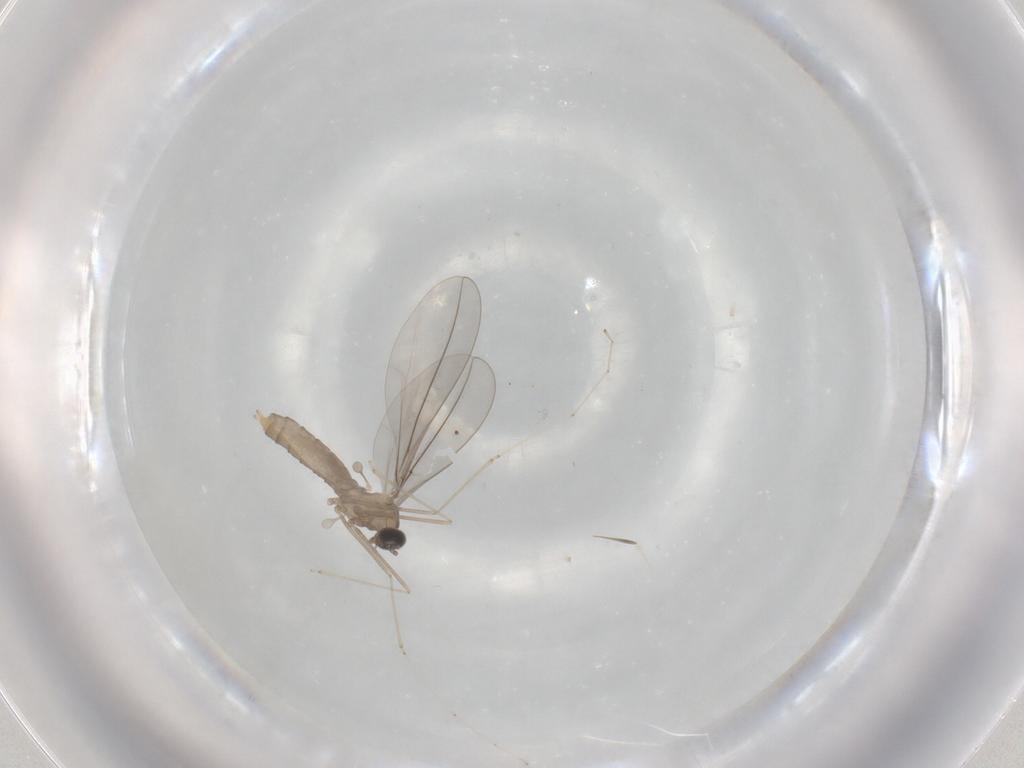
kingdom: Animalia
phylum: Arthropoda
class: Insecta
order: Diptera
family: Cecidomyiidae
